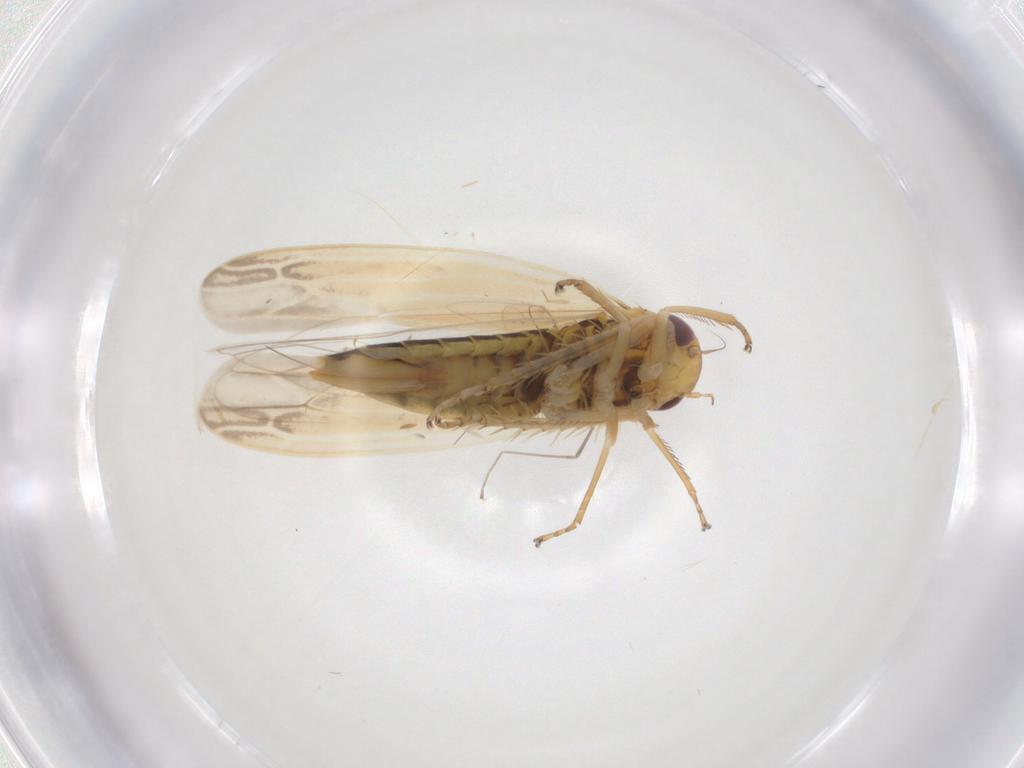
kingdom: Animalia
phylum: Arthropoda
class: Insecta
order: Hemiptera
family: Cicadellidae
